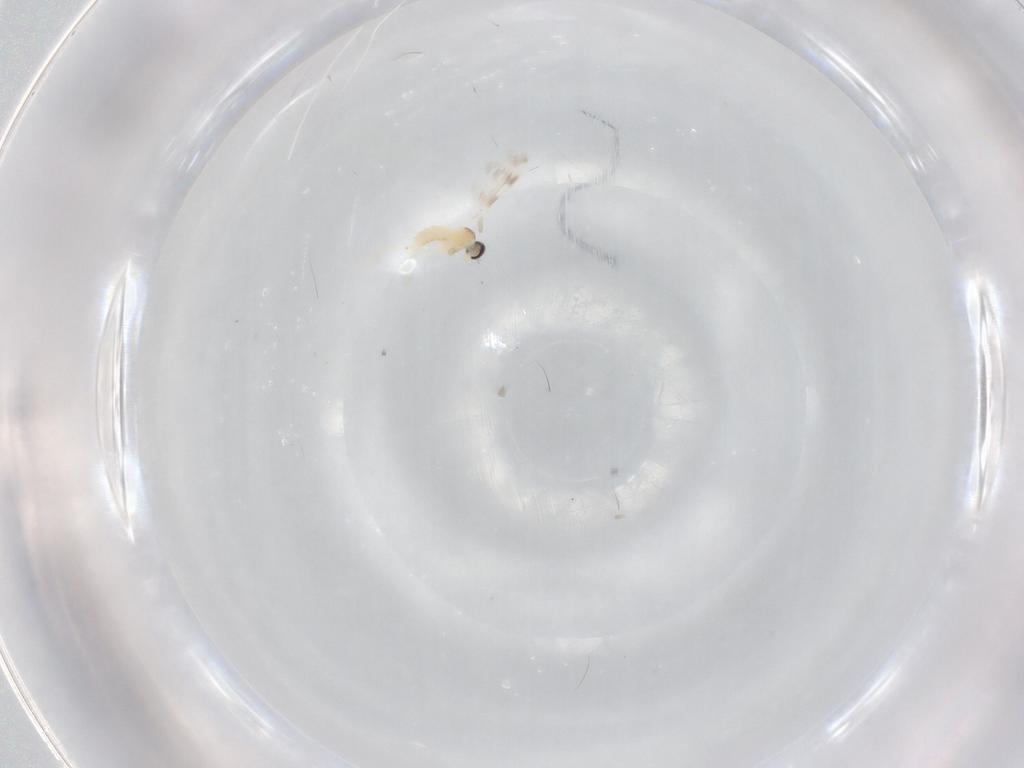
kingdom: Animalia
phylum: Arthropoda
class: Insecta
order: Diptera
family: Cecidomyiidae
